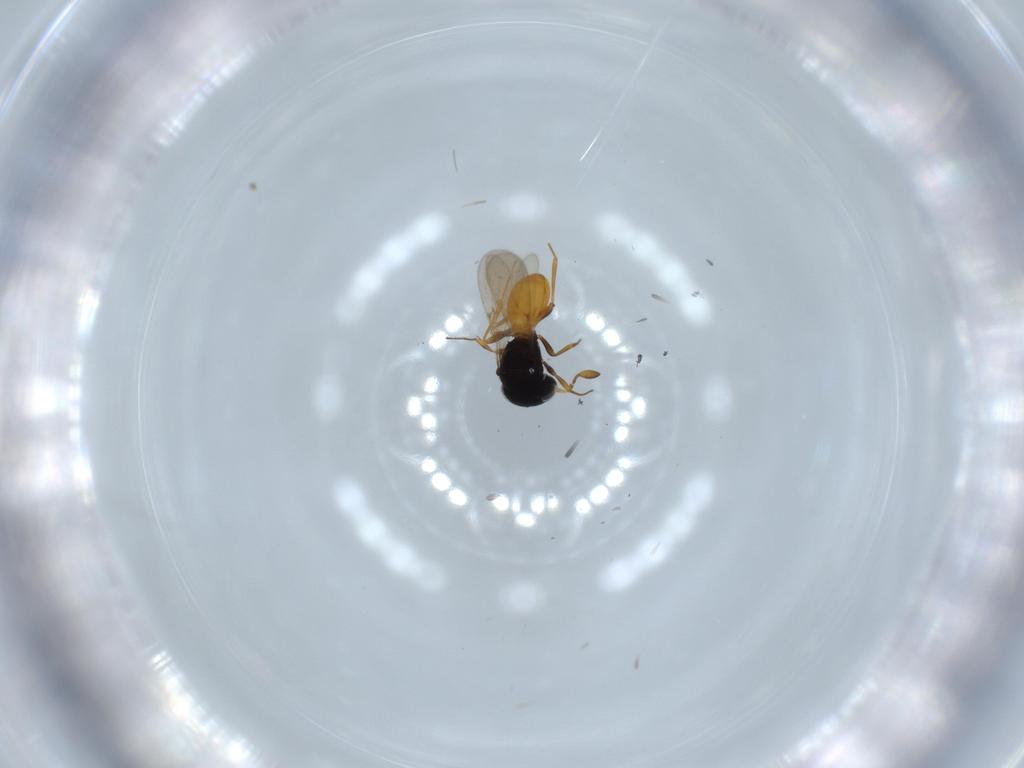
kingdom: Animalia
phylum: Arthropoda
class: Insecta
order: Hymenoptera
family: Scelionidae
